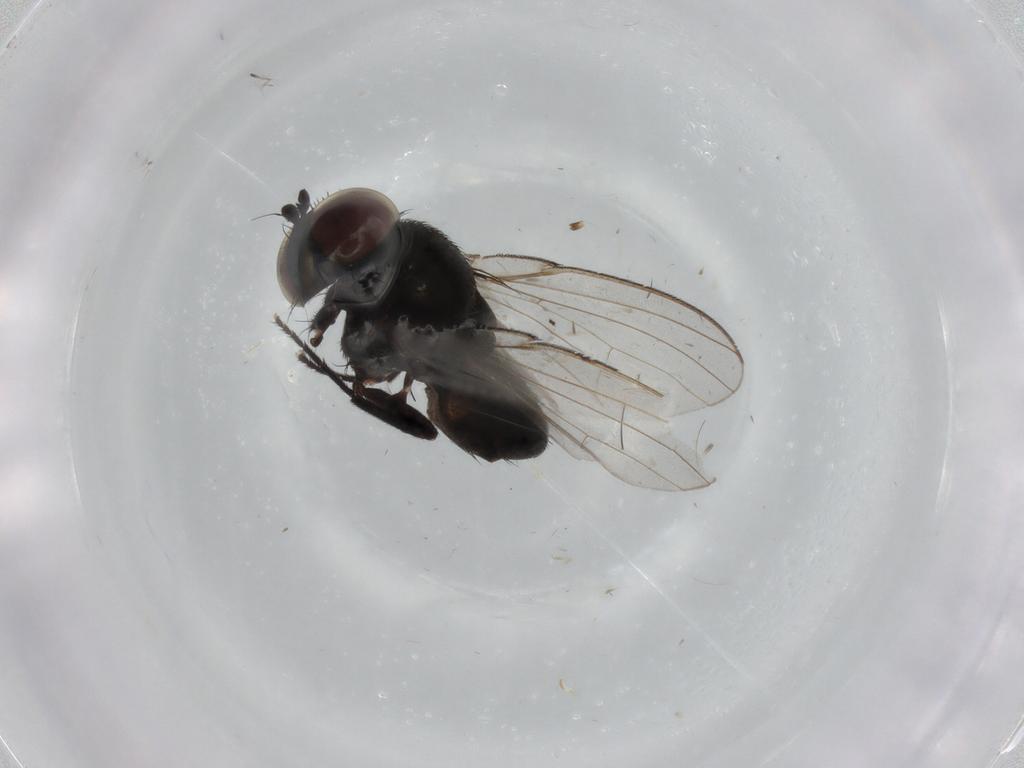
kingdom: Animalia
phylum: Arthropoda
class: Insecta
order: Diptera
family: Milichiidae
